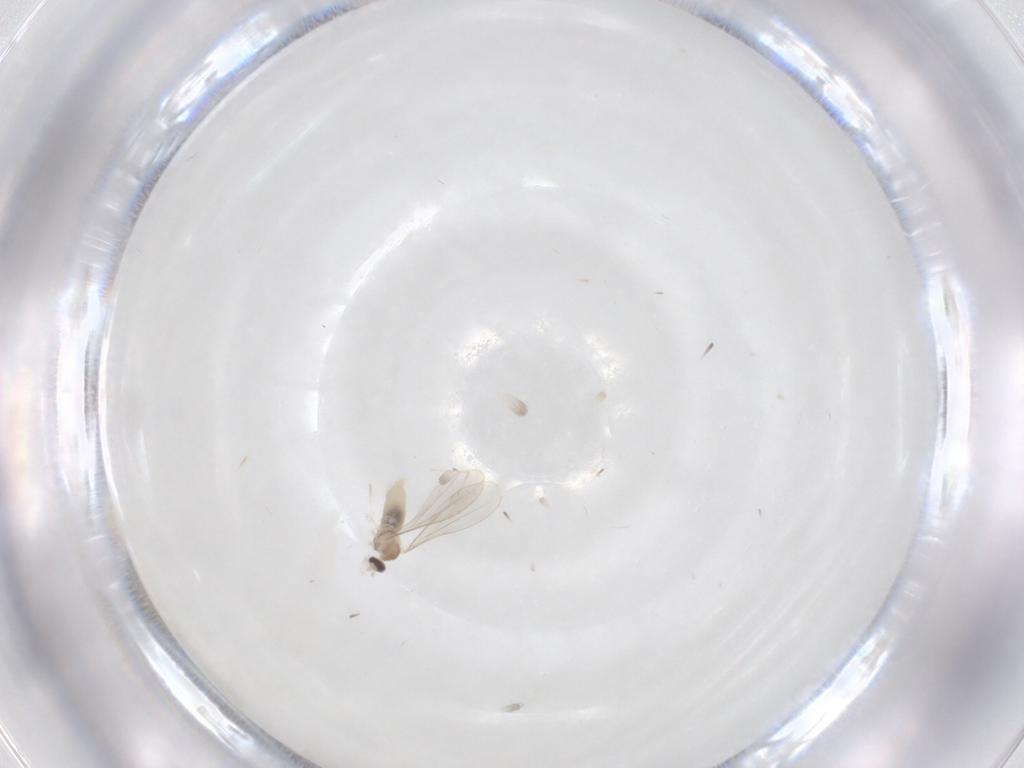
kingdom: Animalia
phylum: Arthropoda
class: Insecta
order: Diptera
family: Cecidomyiidae
